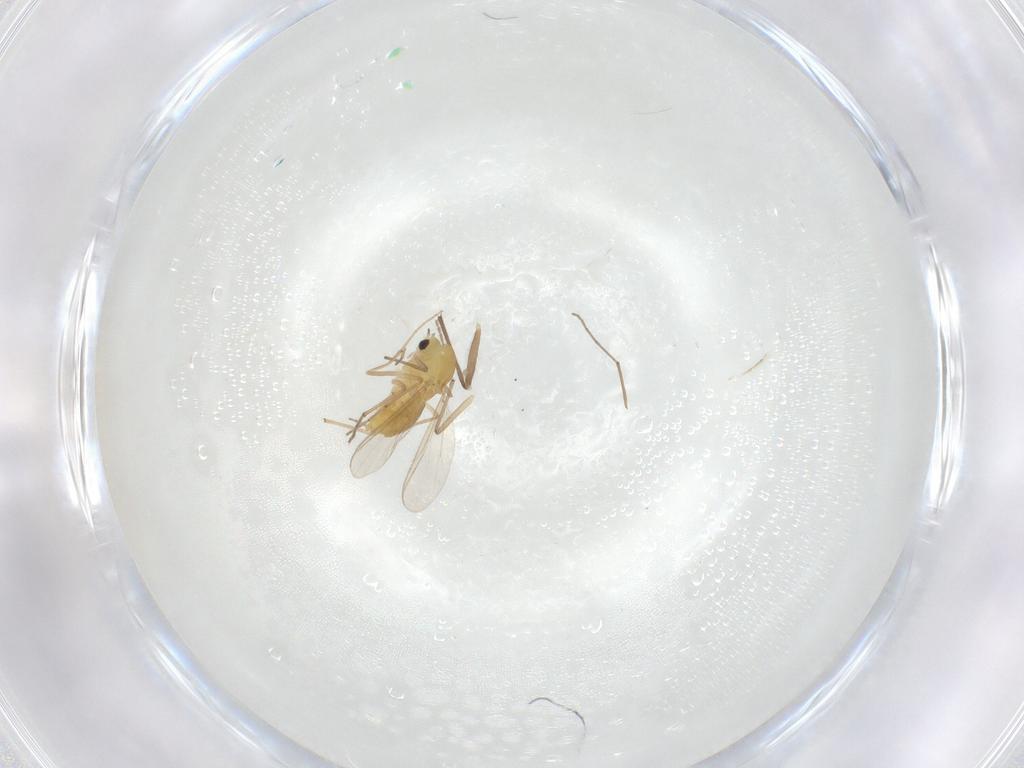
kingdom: Animalia
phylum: Arthropoda
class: Insecta
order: Diptera
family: Chironomidae
